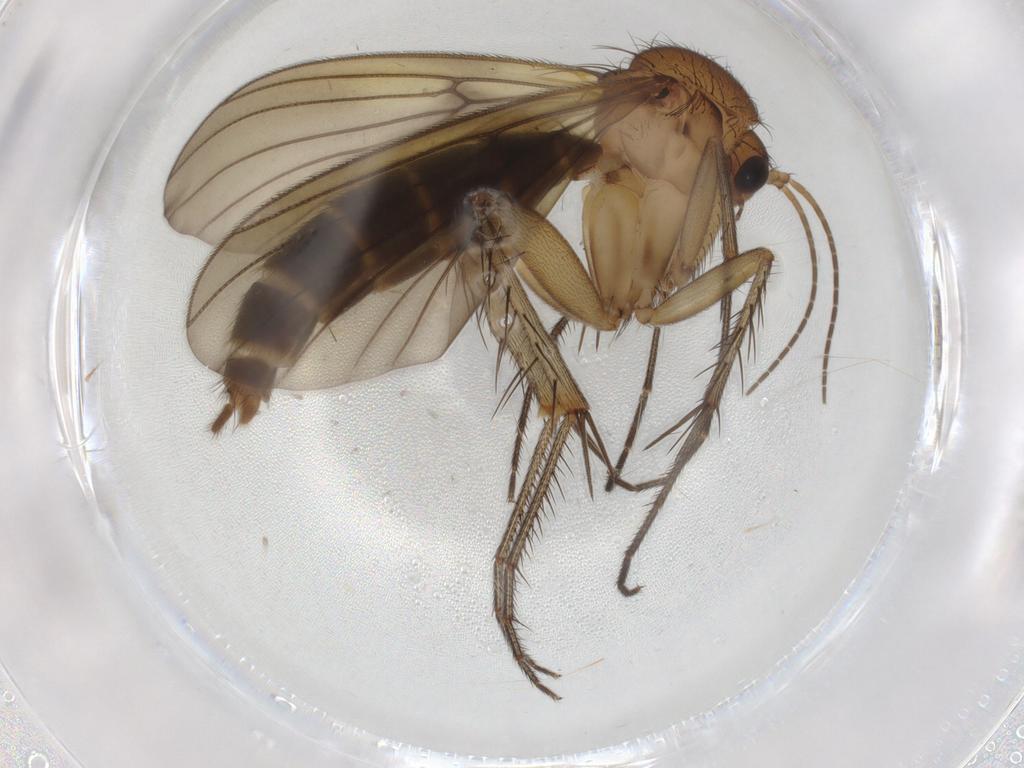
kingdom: Animalia
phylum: Arthropoda
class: Insecta
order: Diptera
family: Mycetophilidae
